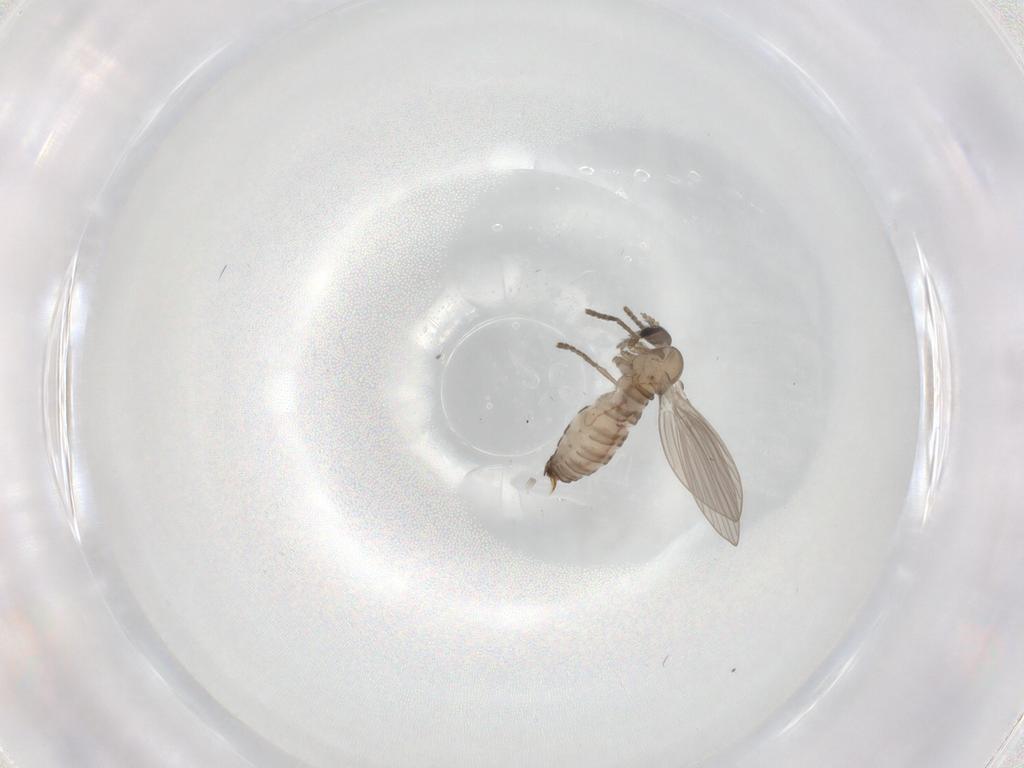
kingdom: Animalia
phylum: Arthropoda
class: Insecta
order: Diptera
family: Psychodidae
